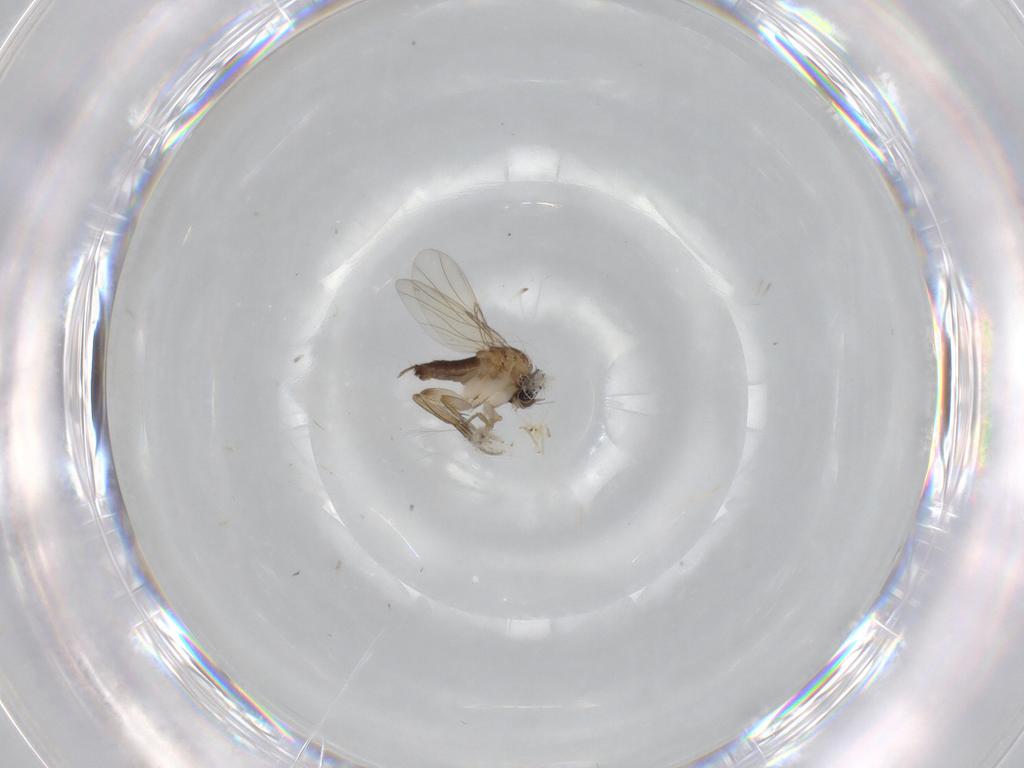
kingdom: Animalia
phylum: Arthropoda
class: Insecta
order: Diptera
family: Phoridae
